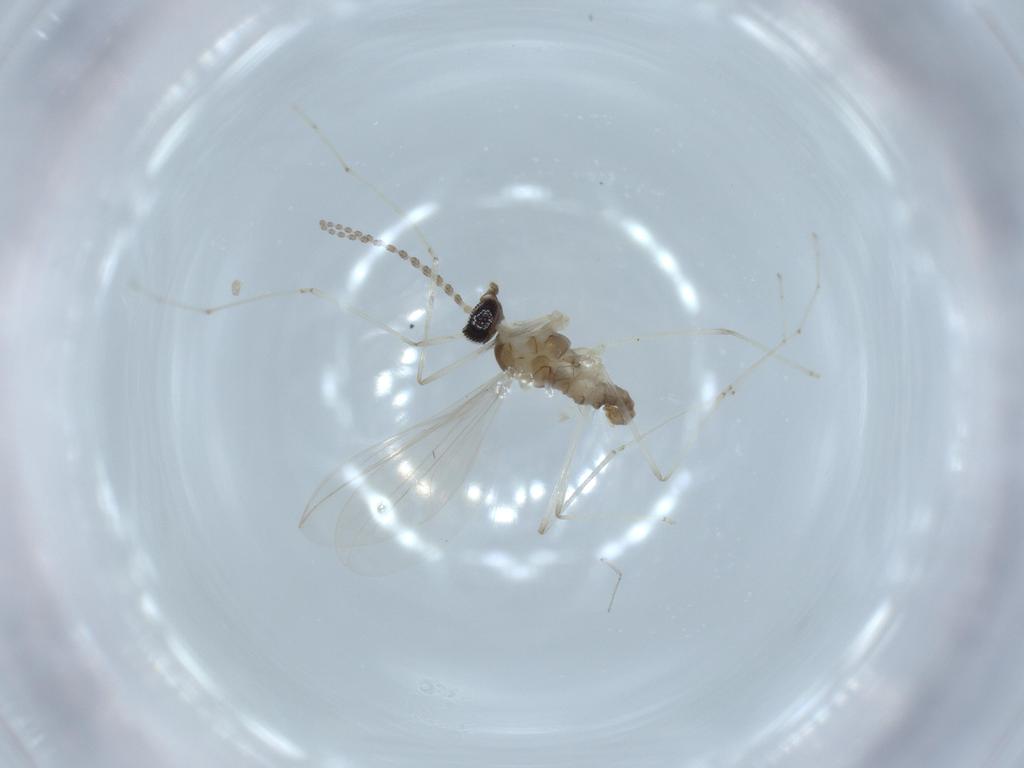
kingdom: Animalia
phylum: Arthropoda
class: Insecta
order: Diptera
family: Cecidomyiidae
